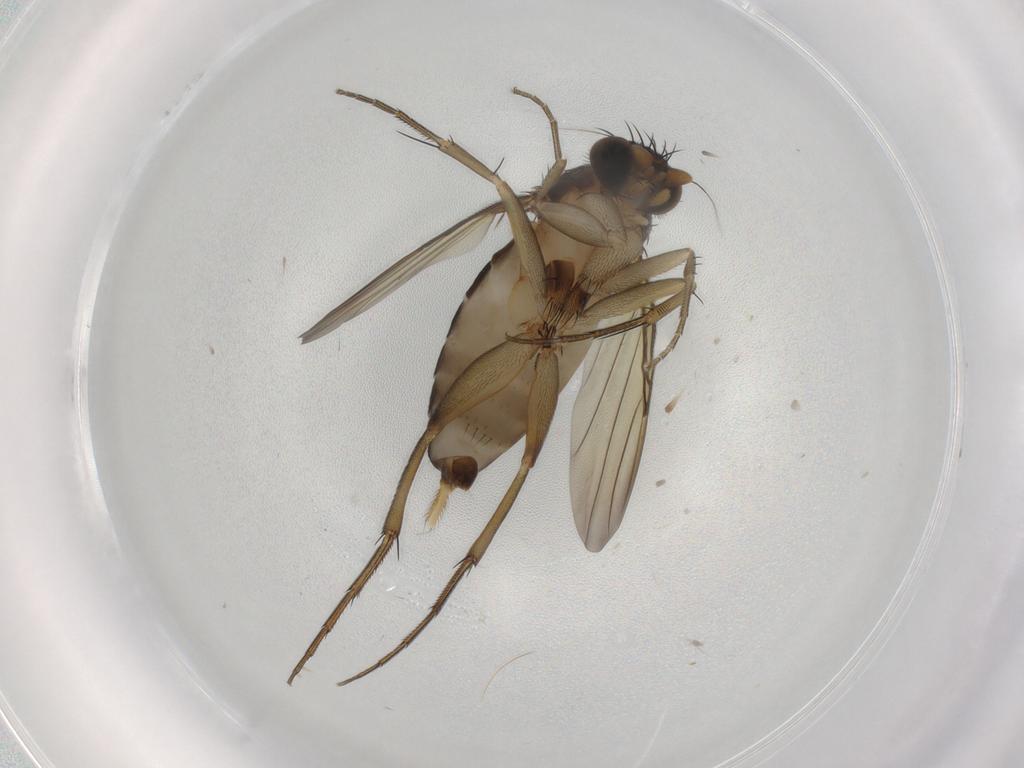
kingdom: Animalia
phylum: Arthropoda
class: Insecta
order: Diptera
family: Phoridae
